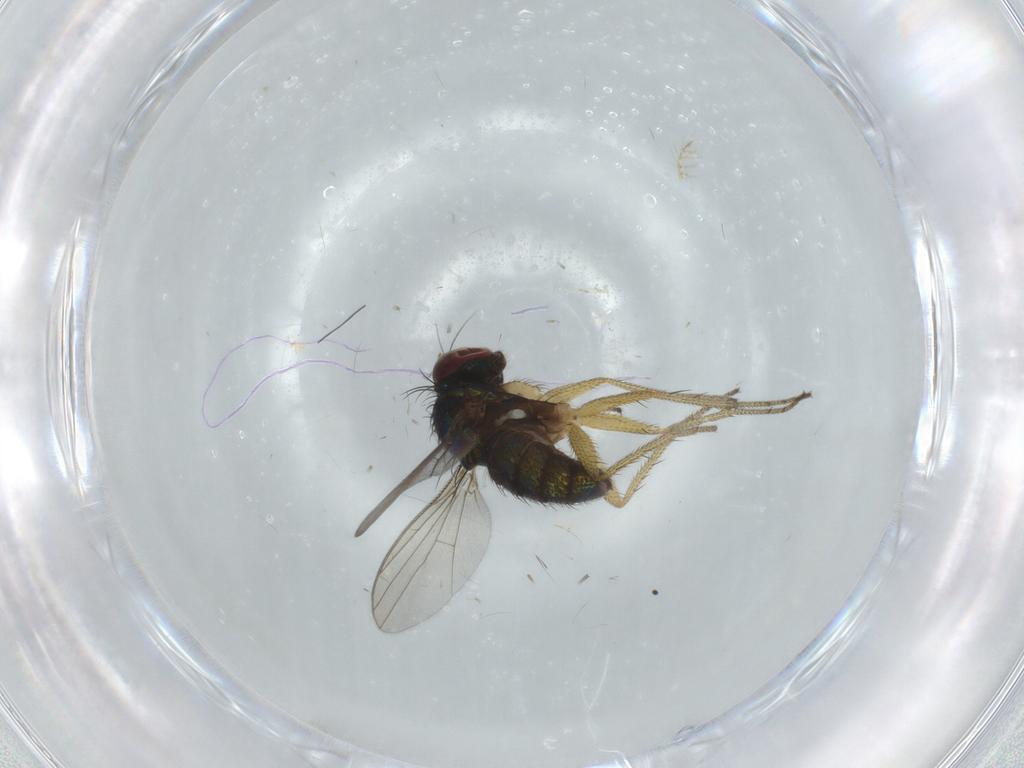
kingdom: Animalia
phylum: Arthropoda
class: Insecta
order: Diptera
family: Dolichopodidae
